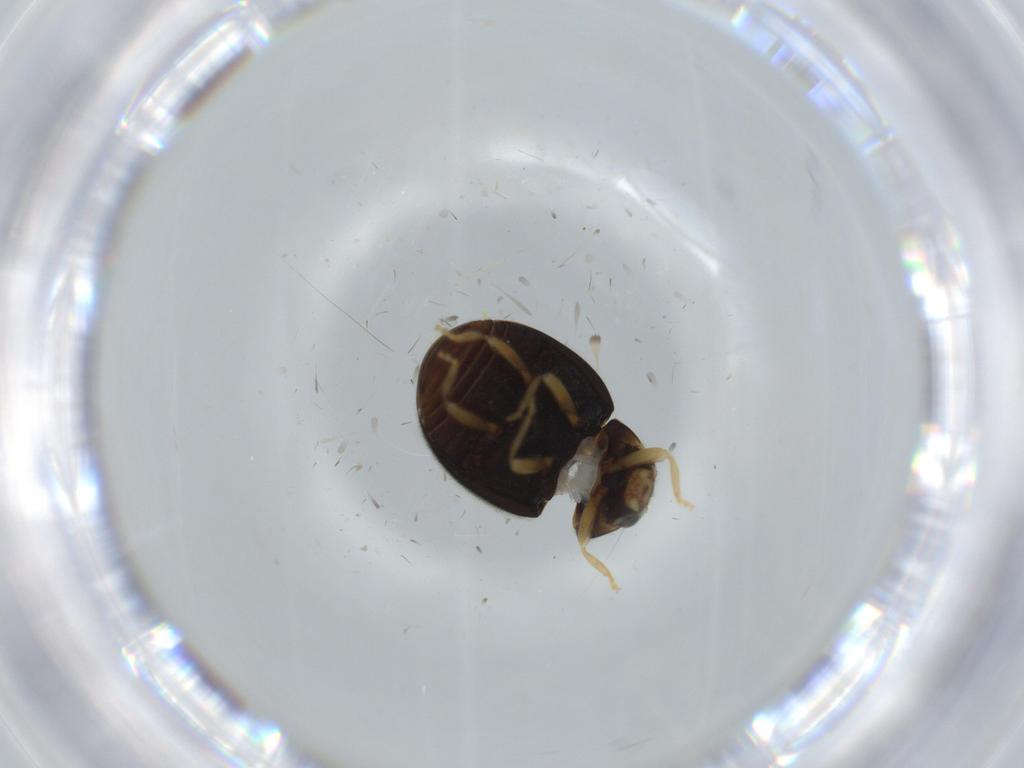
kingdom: Animalia
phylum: Arthropoda
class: Insecta
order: Coleoptera
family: Coccinellidae
